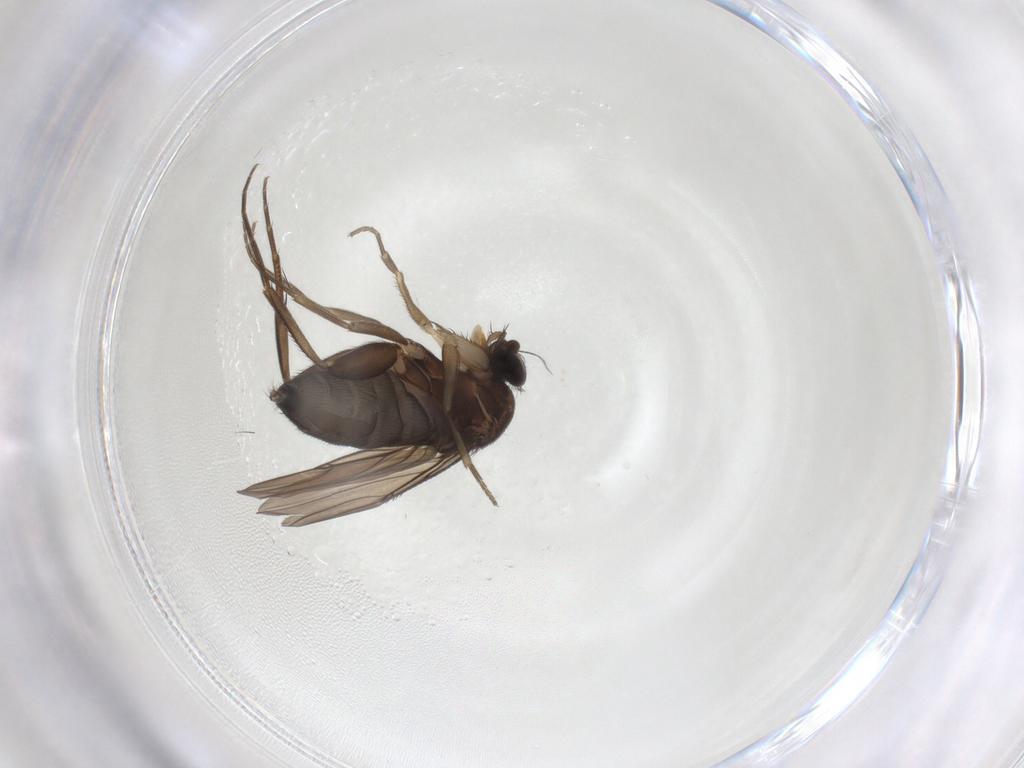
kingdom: Animalia
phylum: Arthropoda
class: Insecta
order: Diptera
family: Phoridae
